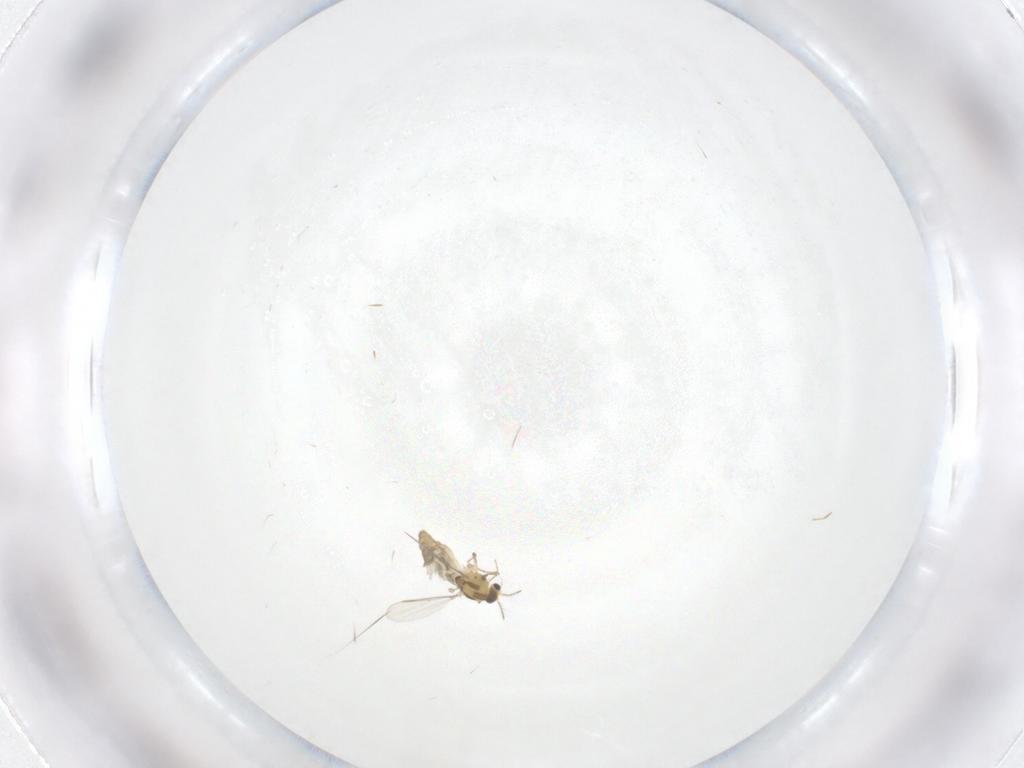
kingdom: Animalia
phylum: Arthropoda
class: Insecta
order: Diptera
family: Chironomidae
